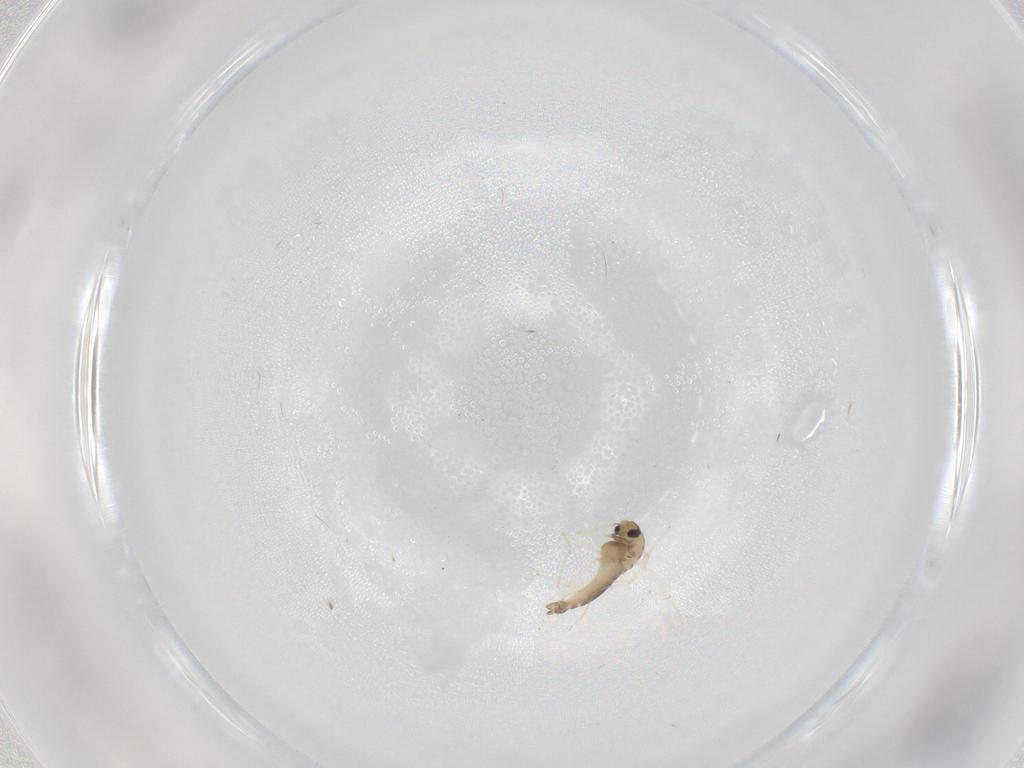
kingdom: Animalia
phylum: Arthropoda
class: Insecta
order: Diptera
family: Chironomidae
